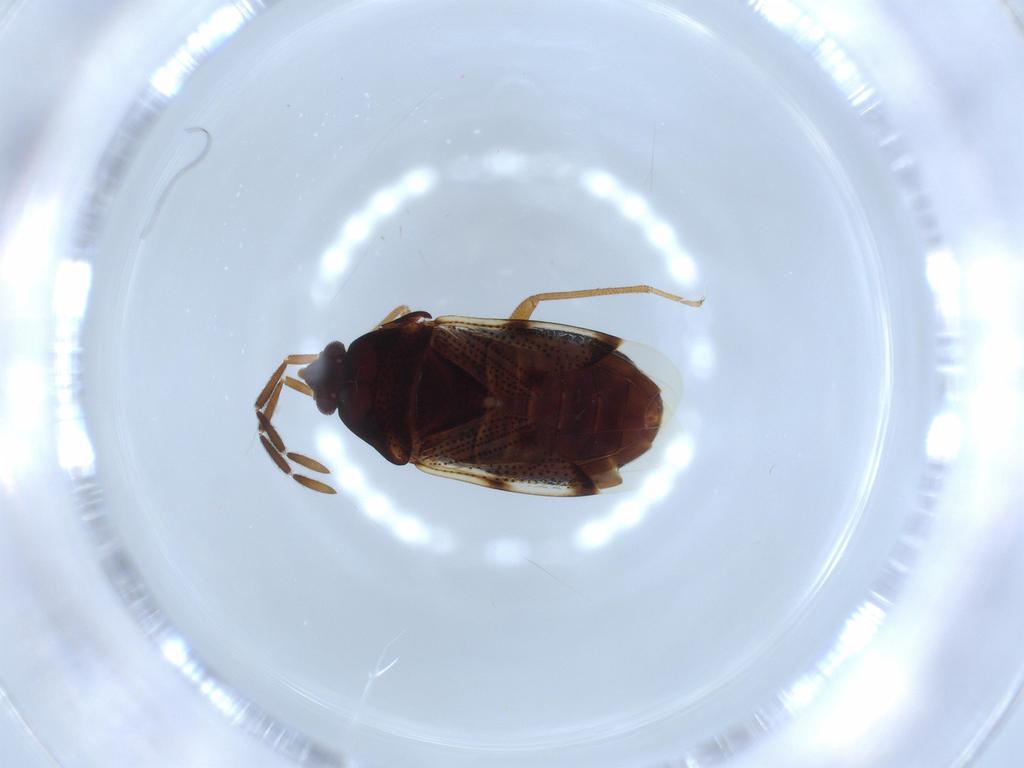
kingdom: Animalia
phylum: Arthropoda
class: Insecta
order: Hemiptera
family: Rhyparochromidae
